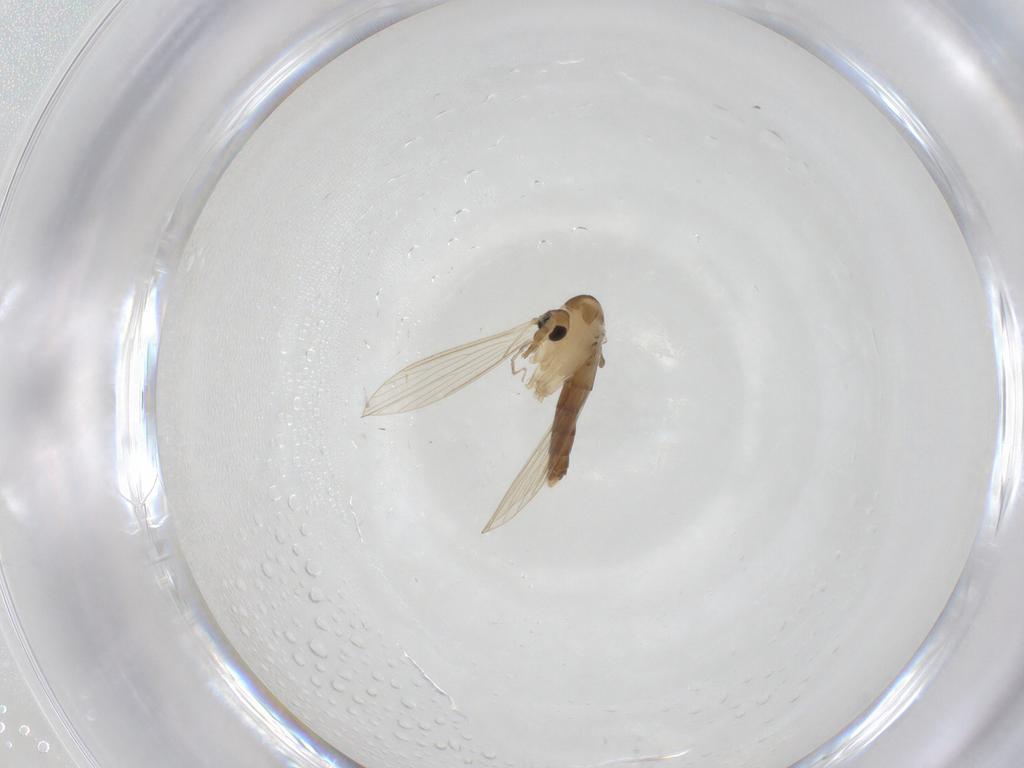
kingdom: Animalia
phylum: Arthropoda
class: Insecta
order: Diptera
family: Psychodidae
